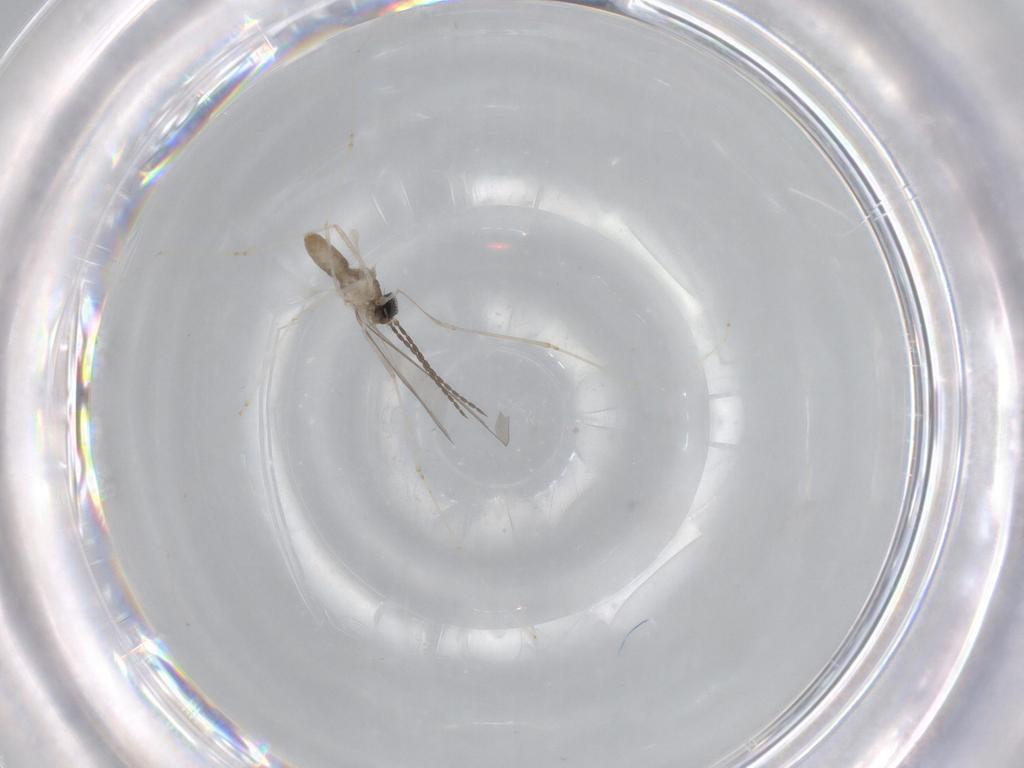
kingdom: Animalia
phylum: Arthropoda
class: Insecta
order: Diptera
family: Cecidomyiidae
